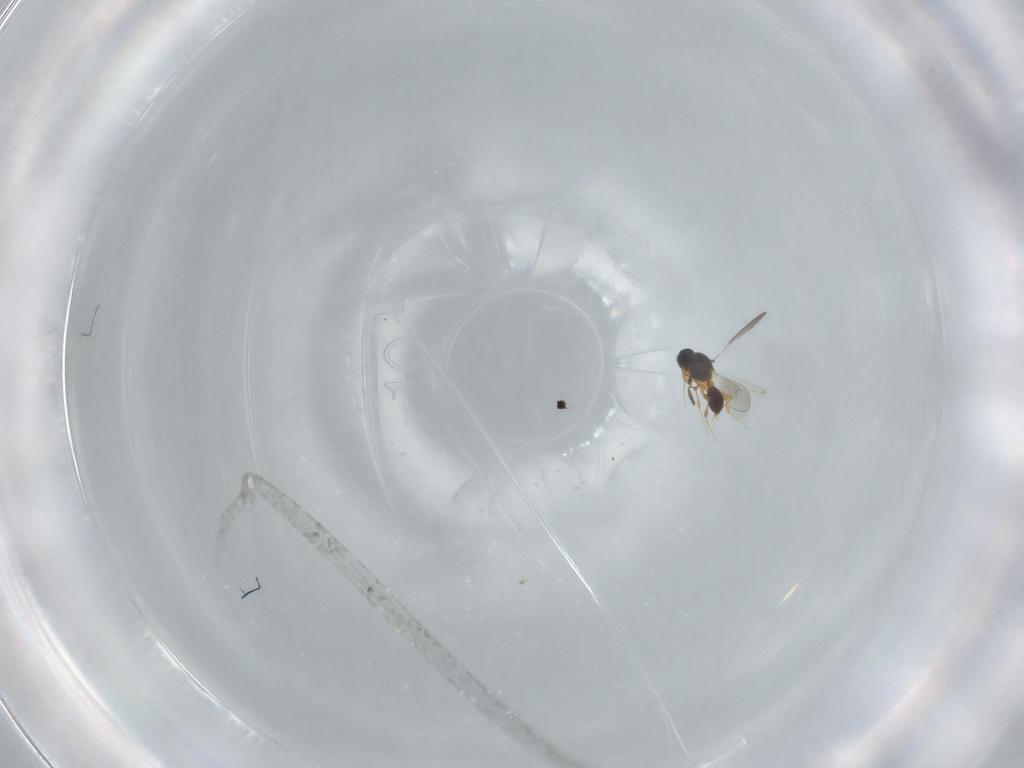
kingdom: Animalia
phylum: Arthropoda
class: Insecta
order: Hymenoptera
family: Platygastridae
